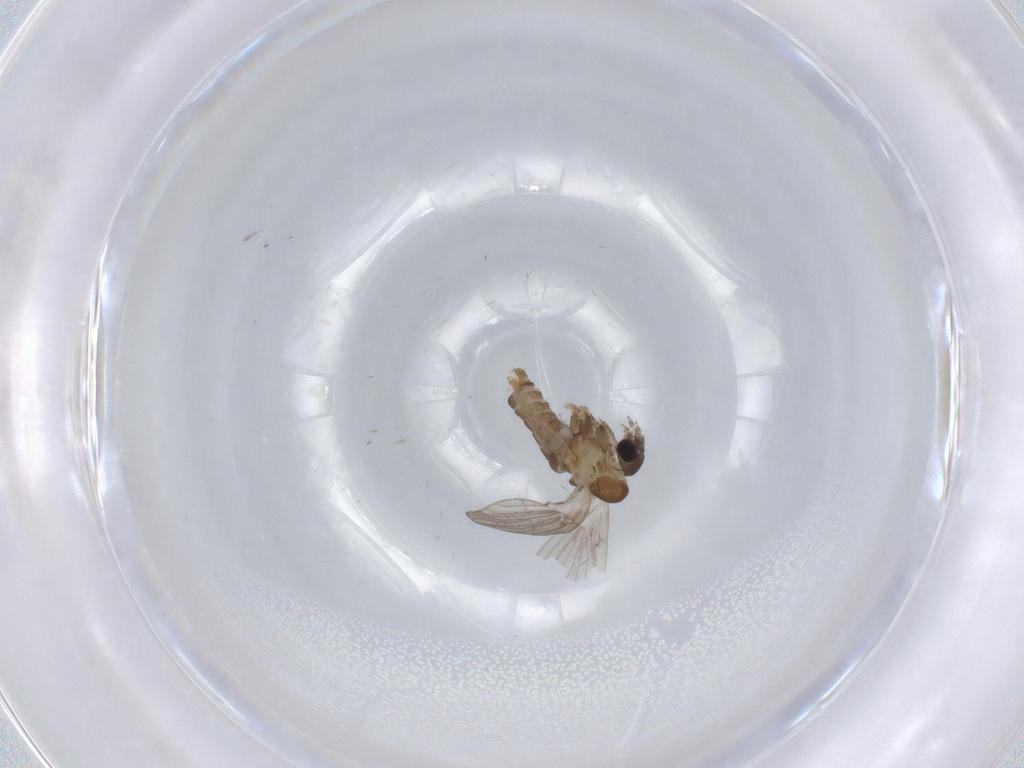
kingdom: Animalia
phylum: Arthropoda
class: Insecta
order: Diptera
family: Psychodidae
